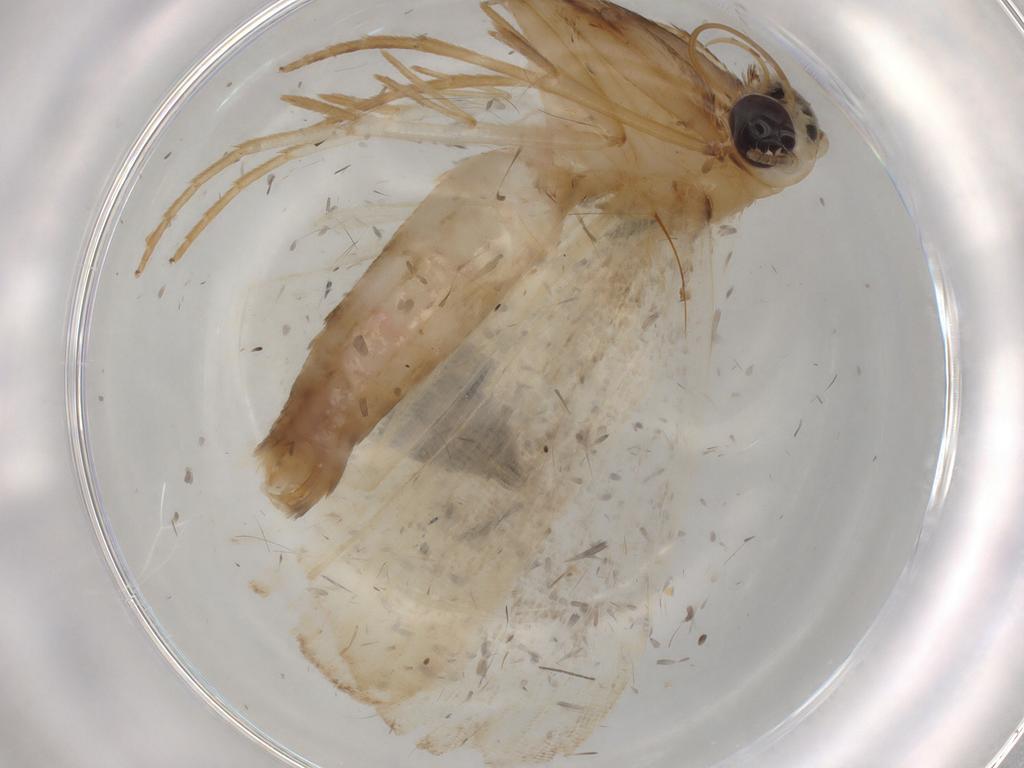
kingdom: Animalia
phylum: Arthropoda
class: Insecta
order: Lepidoptera
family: Noctuidae
